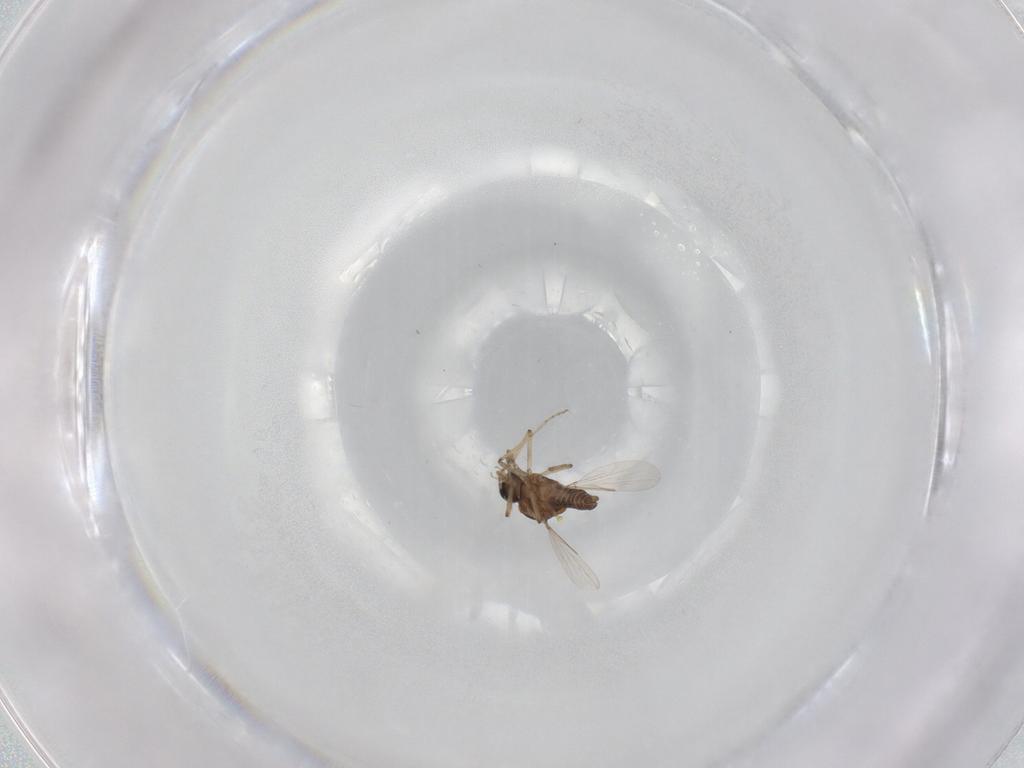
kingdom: Animalia
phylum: Arthropoda
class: Insecta
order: Diptera
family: Ceratopogonidae
